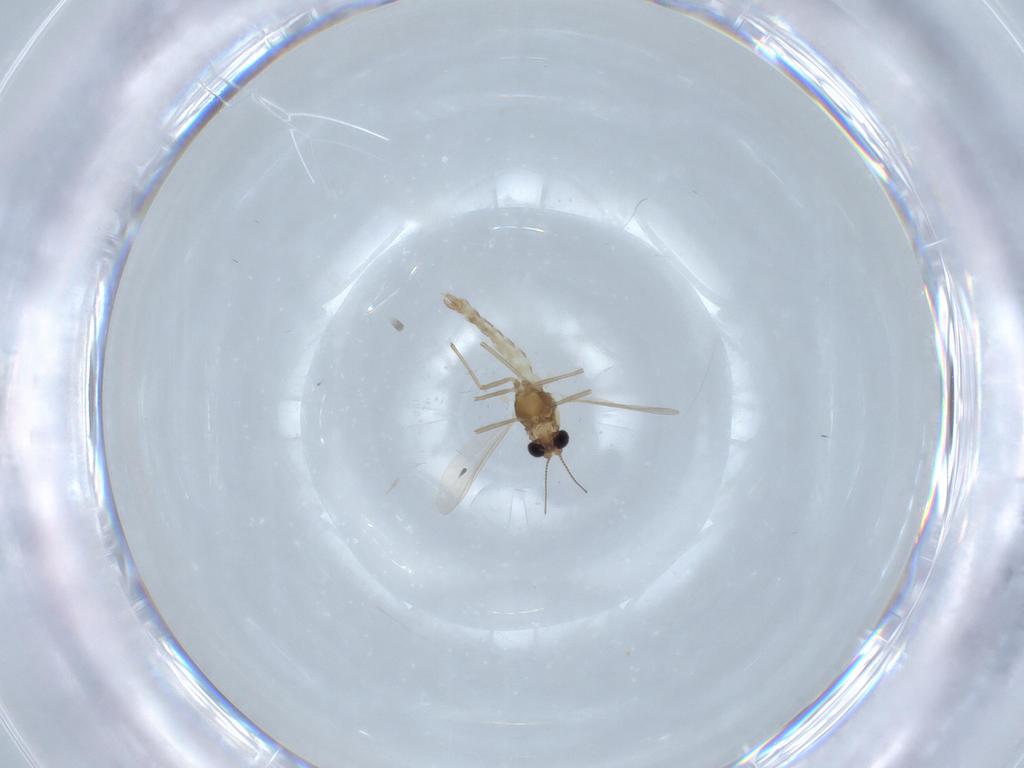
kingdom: Animalia
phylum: Arthropoda
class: Insecta
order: Diptera
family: Chironomidae
